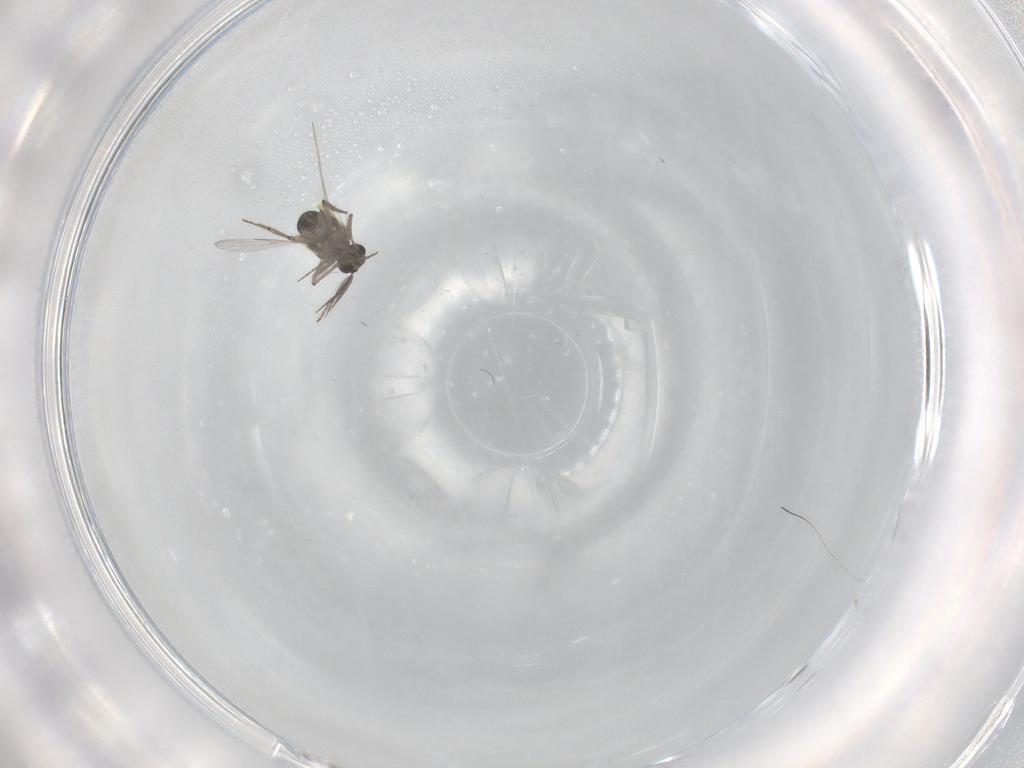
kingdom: Animalia
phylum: Arthropoda
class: Insecta
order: Diptera
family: Ceratopogonidae
